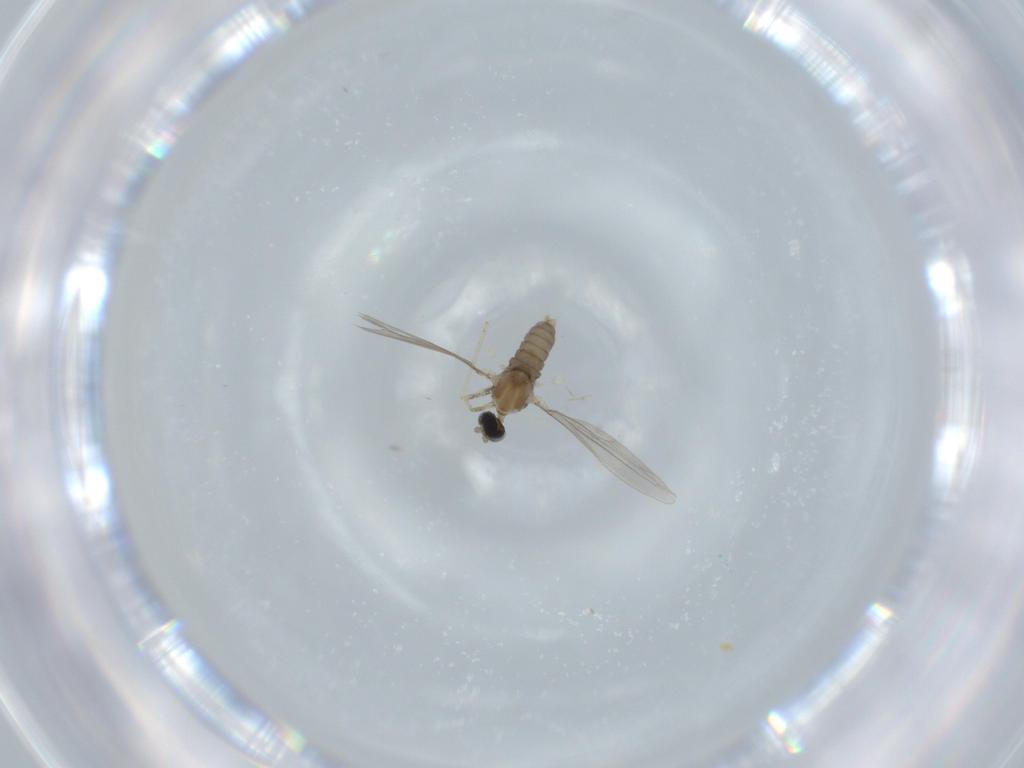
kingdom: Animalia
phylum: Arthropoda
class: Insecta
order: Diptera
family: Cecidomyiidae
